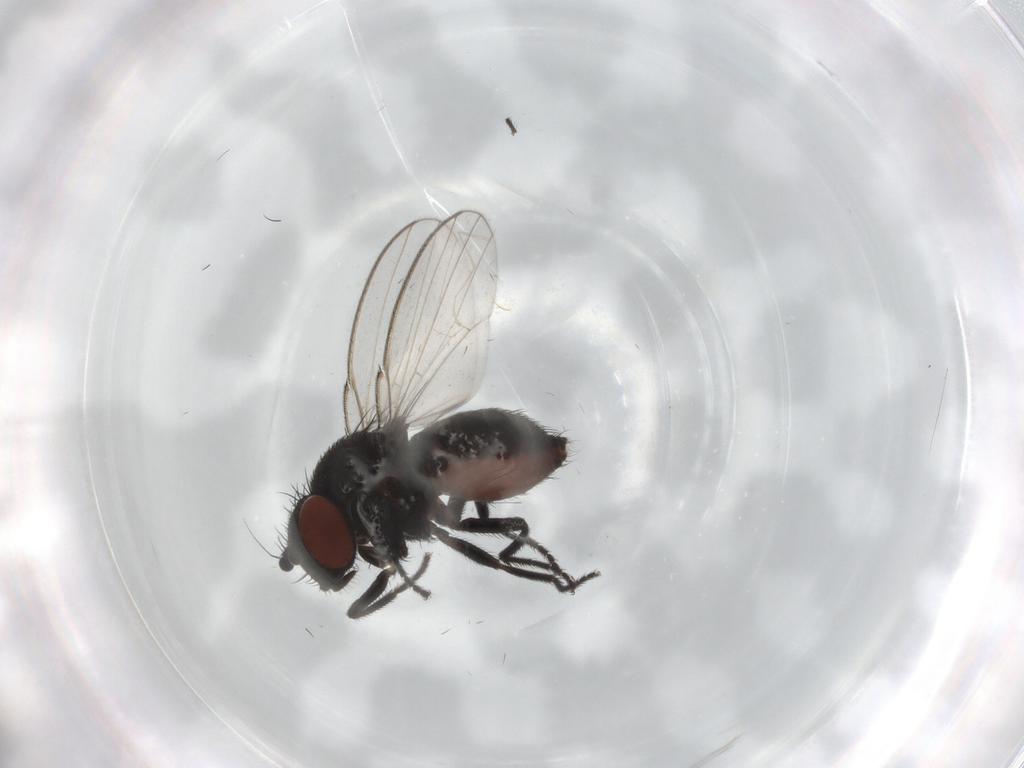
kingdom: Animalia
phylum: Arthropoda
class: Insecta
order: Diptera
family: Milichiidae
